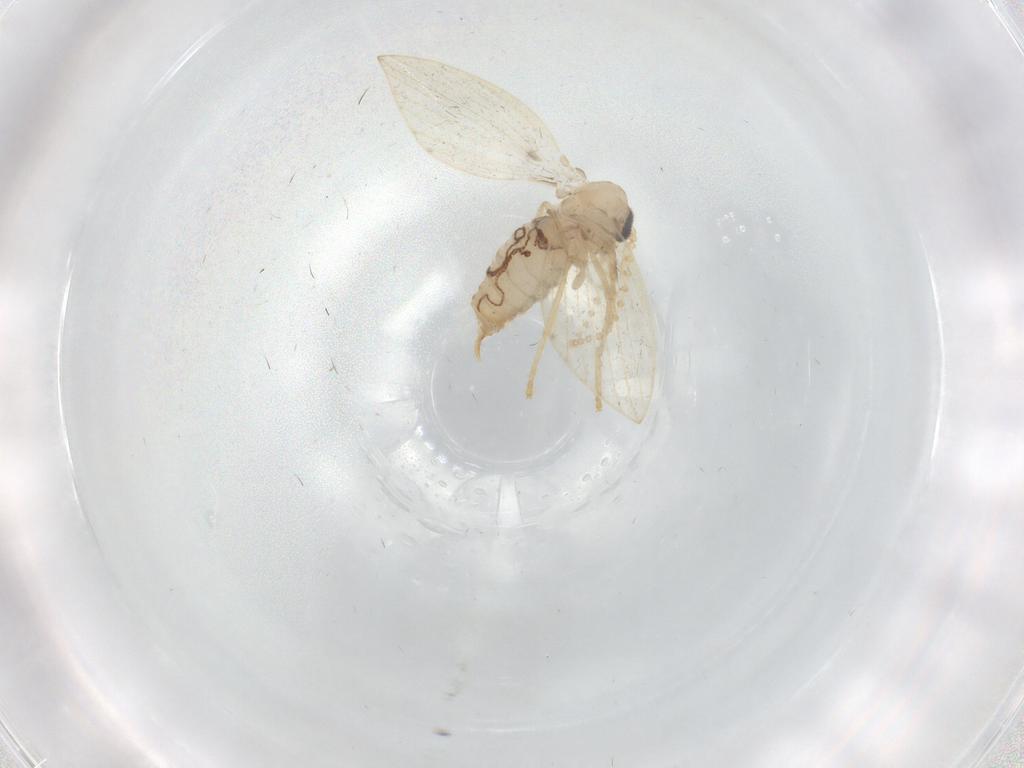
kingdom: Animalia
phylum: Arthropoda
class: Insecta
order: Diptera
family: Psychodidae
